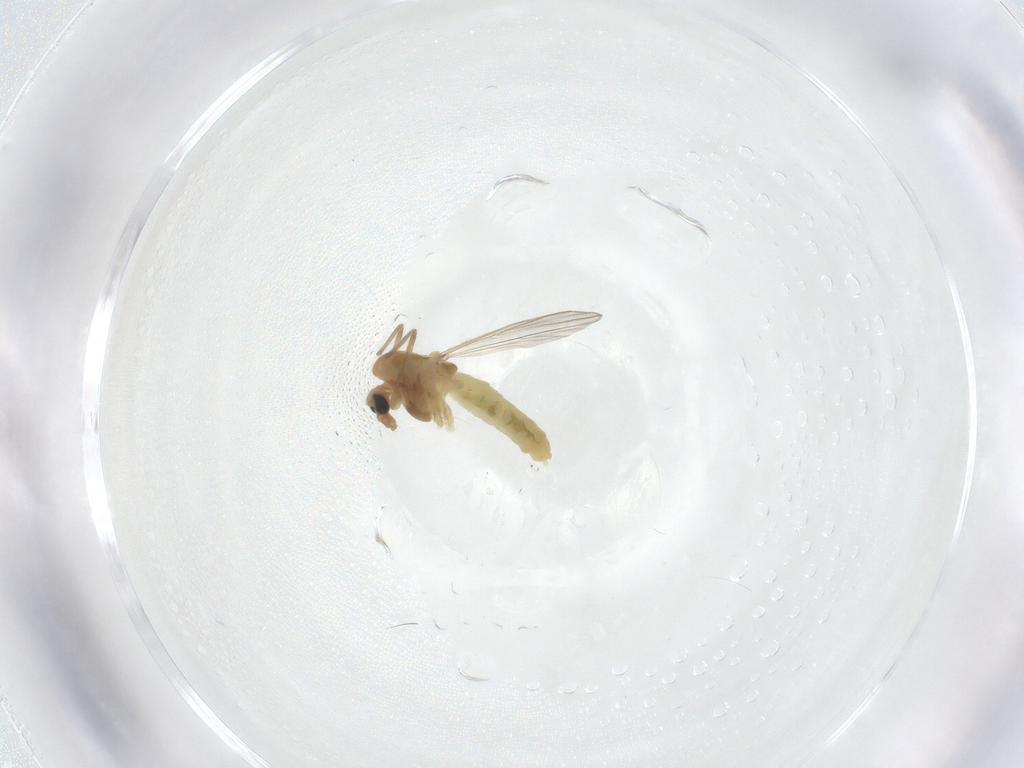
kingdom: Animalia
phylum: Arthropoda
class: Insecta
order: Diptera
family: Chironomidae
